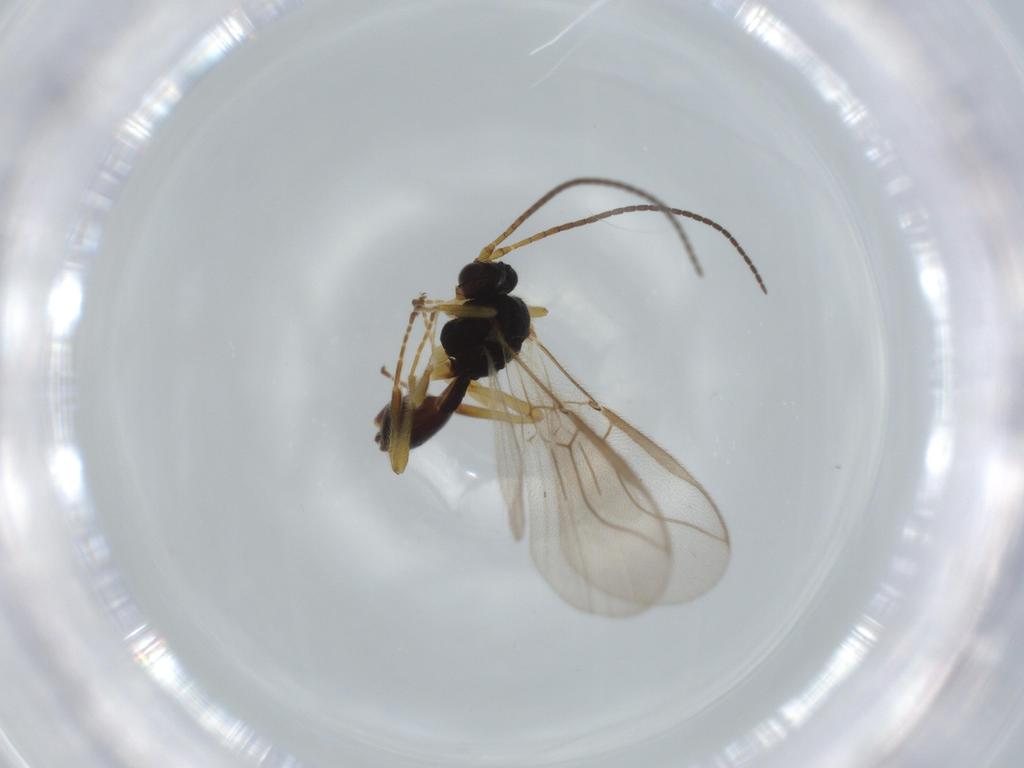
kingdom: Animalia
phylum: Arthropoda
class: Insecta
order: Hymenoptera
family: Braconidae
